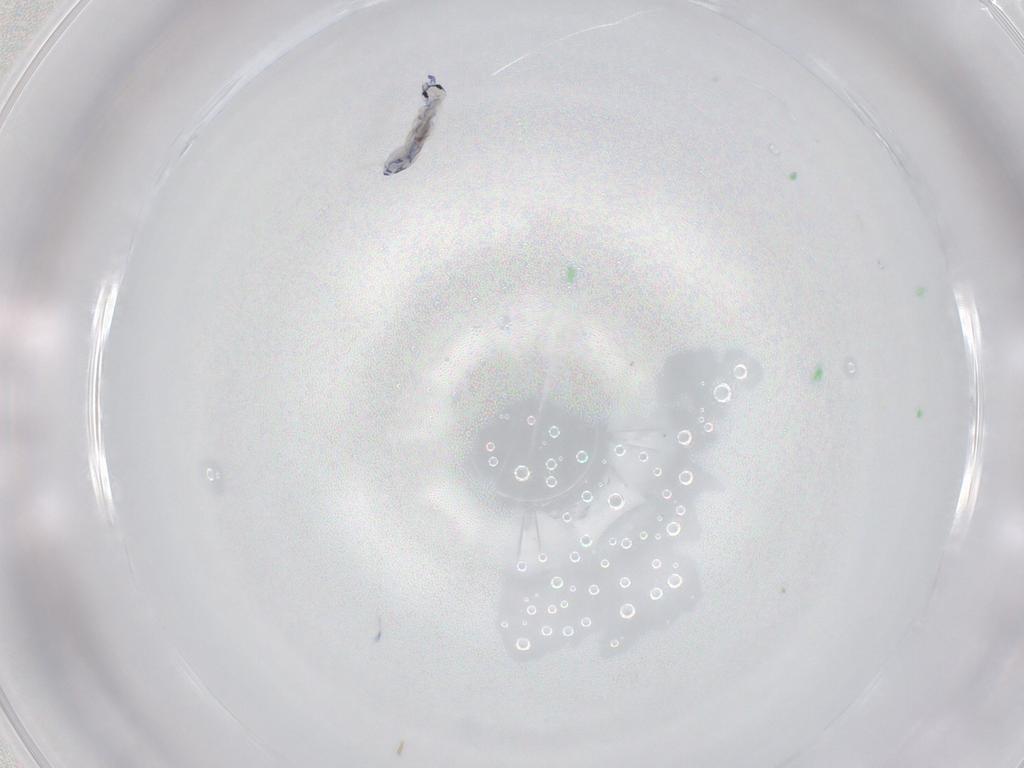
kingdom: Animalia
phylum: Arthropoda
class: Collembola
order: Entomobryomorpha
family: Entomobryidae
